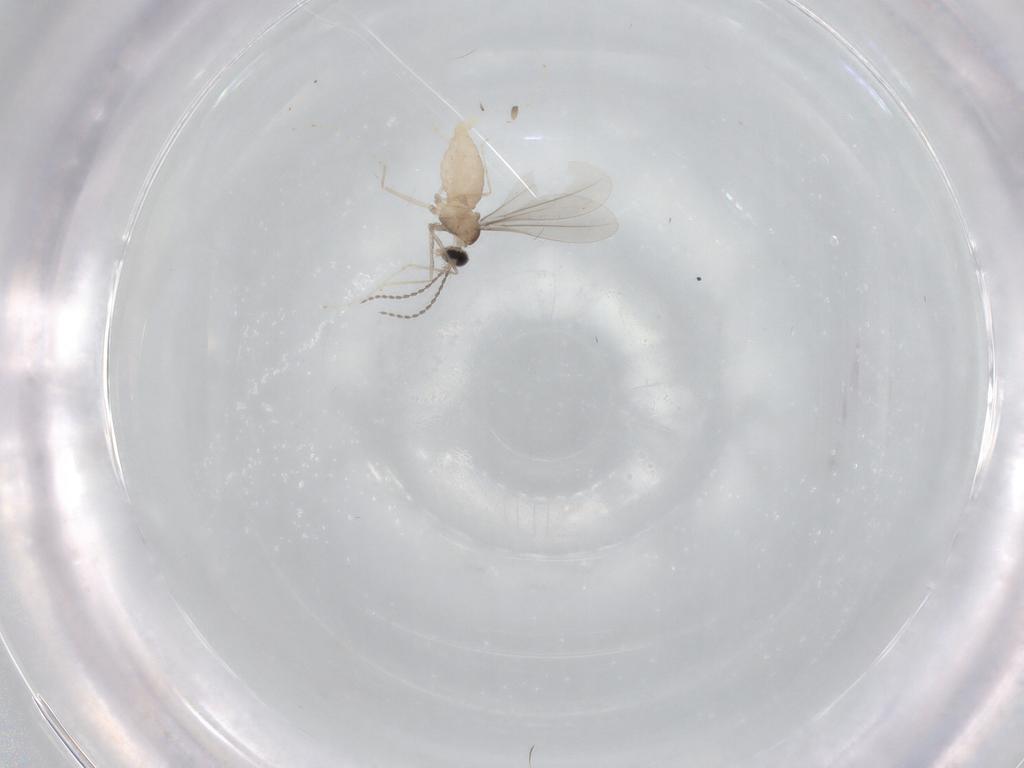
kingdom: Animalia
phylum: Arthropoda
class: Insecta
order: Diptera
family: Cecidomyiidae
